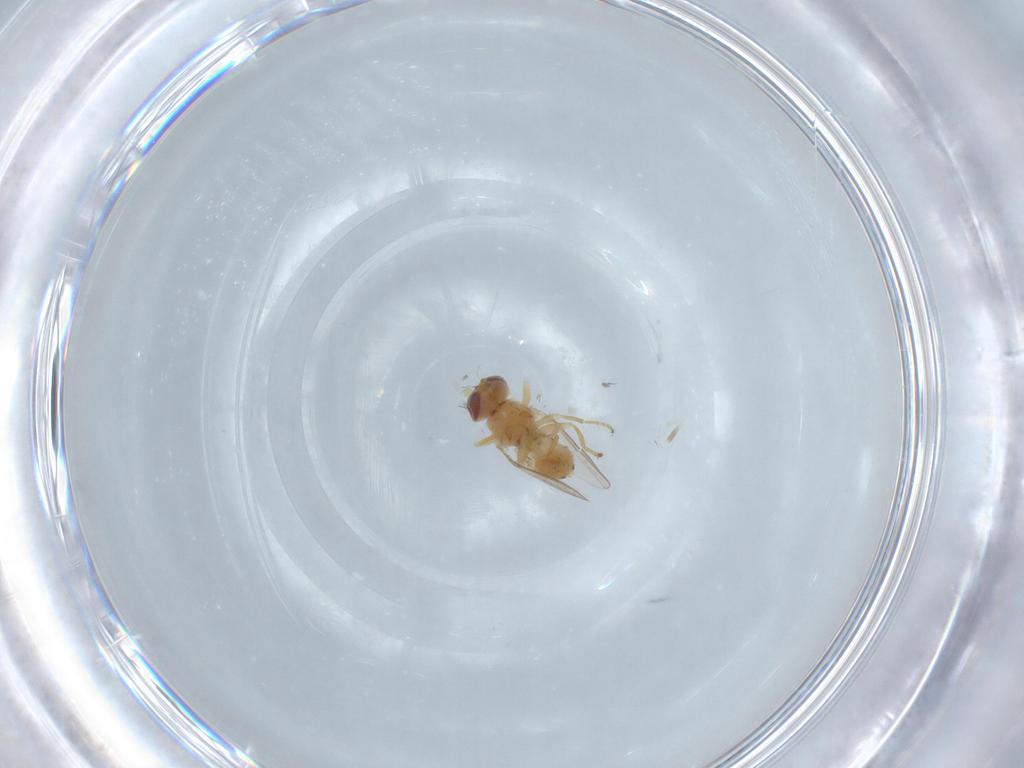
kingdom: Animalia
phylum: Arthropoda
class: Insecta
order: Diptera
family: Chyromyidae
